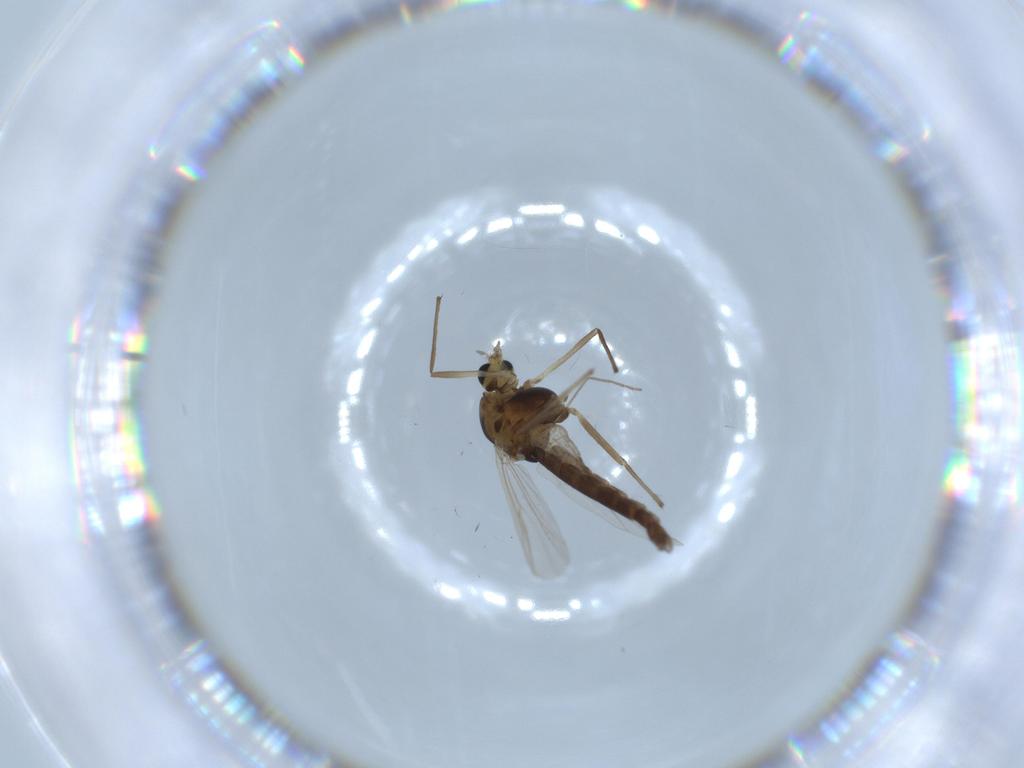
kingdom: Animalia
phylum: Arthropoda
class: Insecta
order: Diptera
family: Chironomidae
